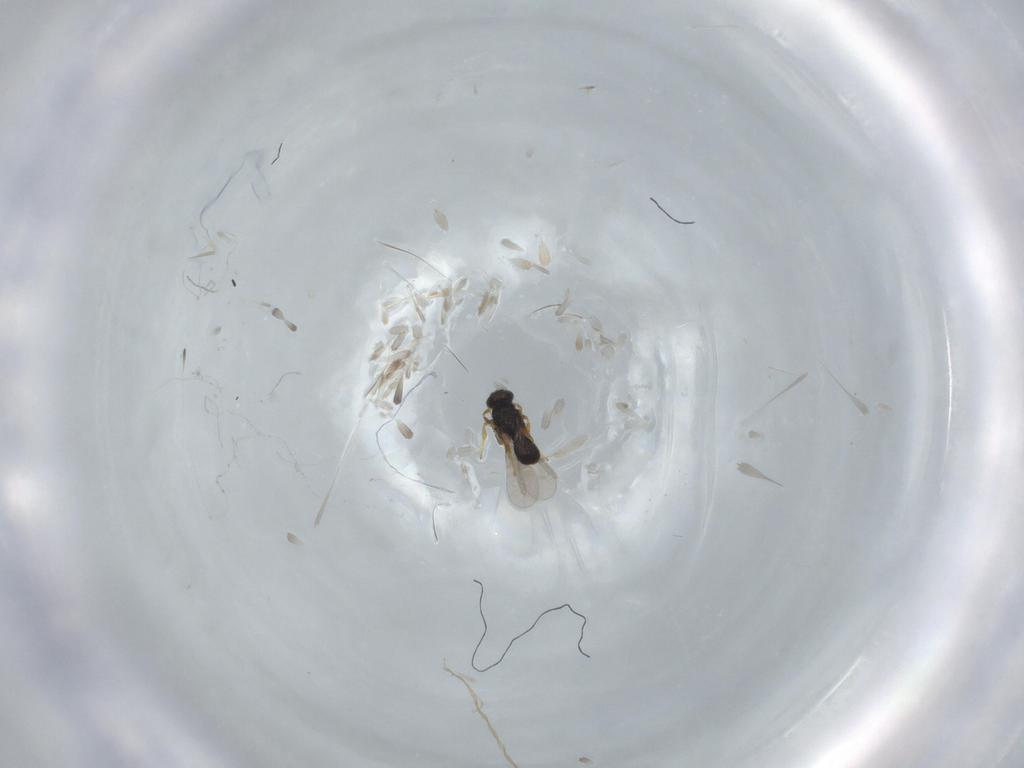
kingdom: Animalia
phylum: Arthropoda
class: Insecta
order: Hymenoptera
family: Platygastridae
